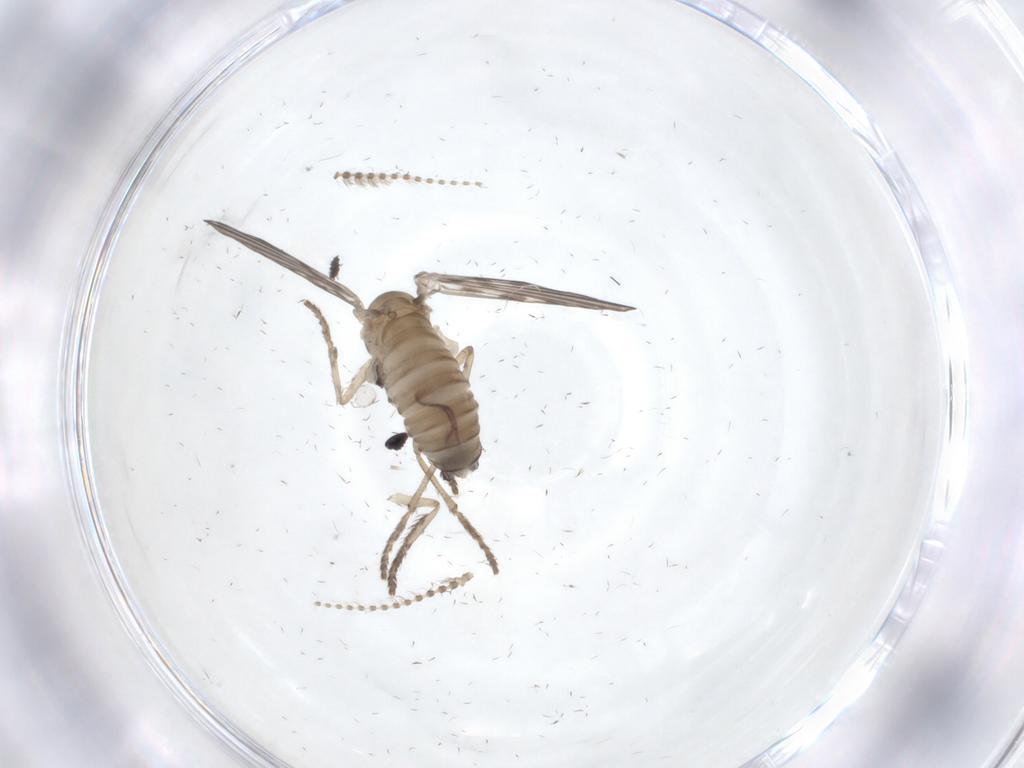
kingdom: Animalia
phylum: Arthropoda
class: Insecta
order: Diptera
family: Psychodidae
